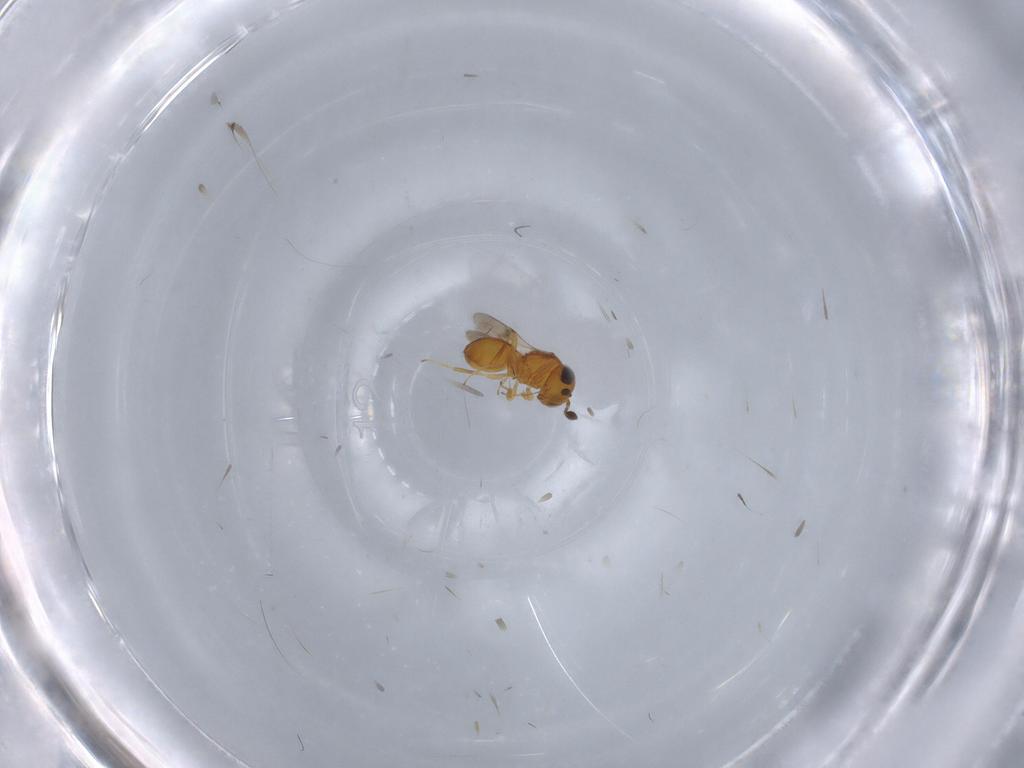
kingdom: Animalia
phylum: Arthropoda
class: Insecta
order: Hymenoptera
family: Scelionidae
